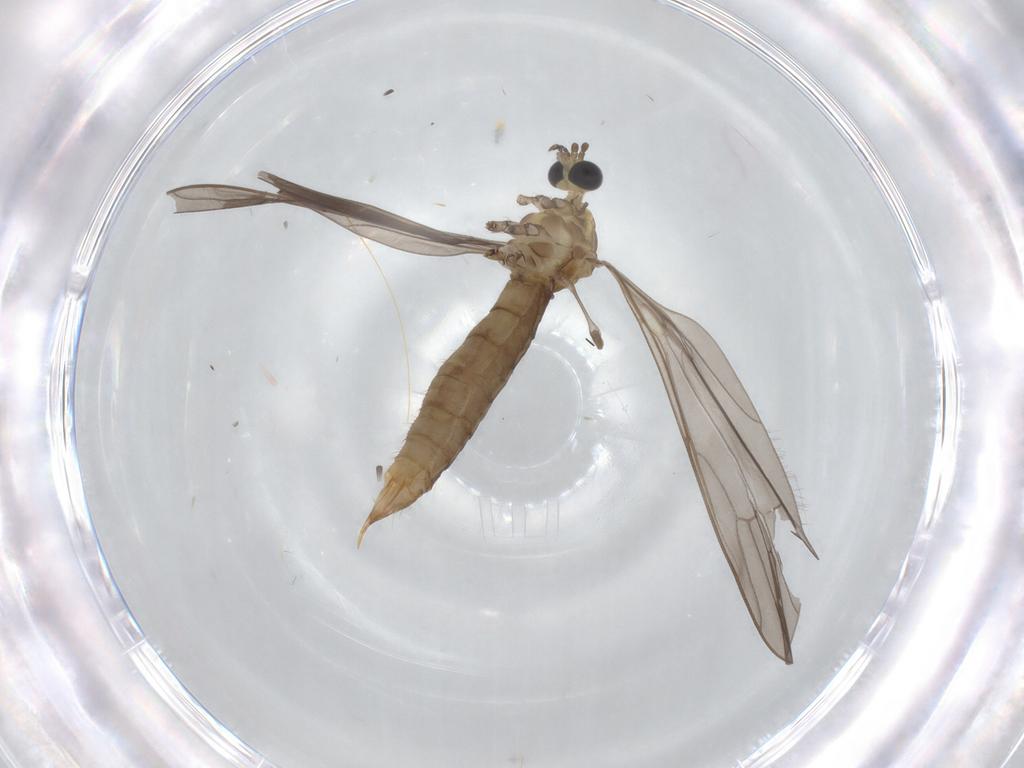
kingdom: Animalia
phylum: Arthropoda
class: Insecta
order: Diptera
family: Limoniidae
